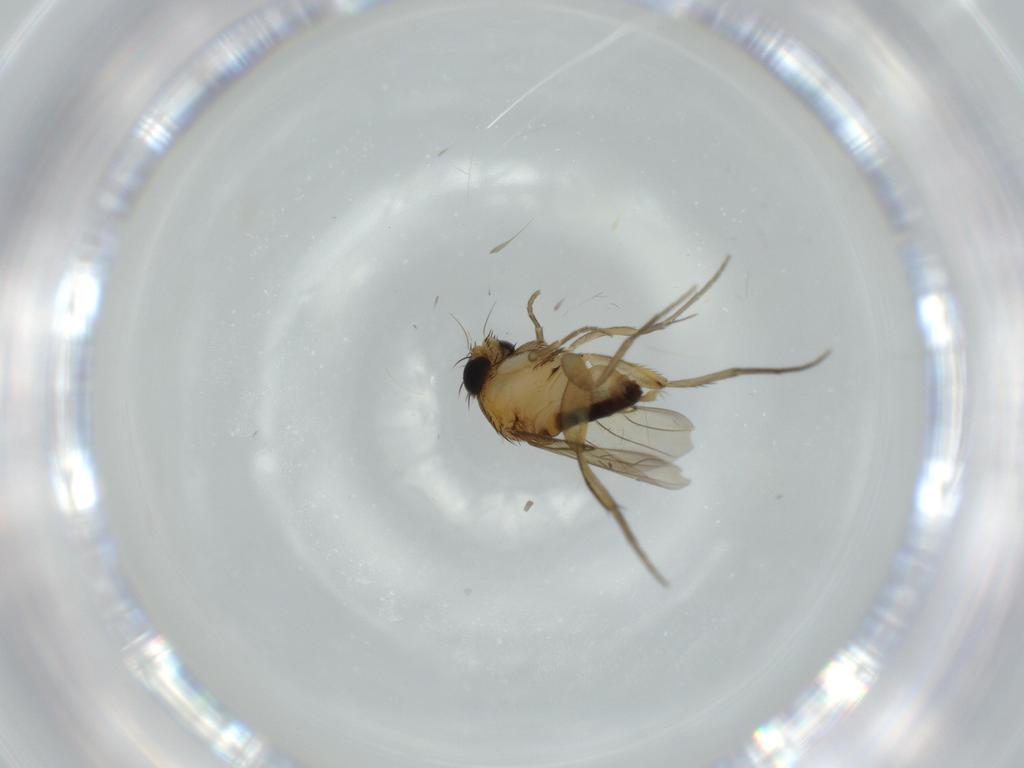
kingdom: Animalia
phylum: Arthropoda
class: Insecta
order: Diptera
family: Phoridae
